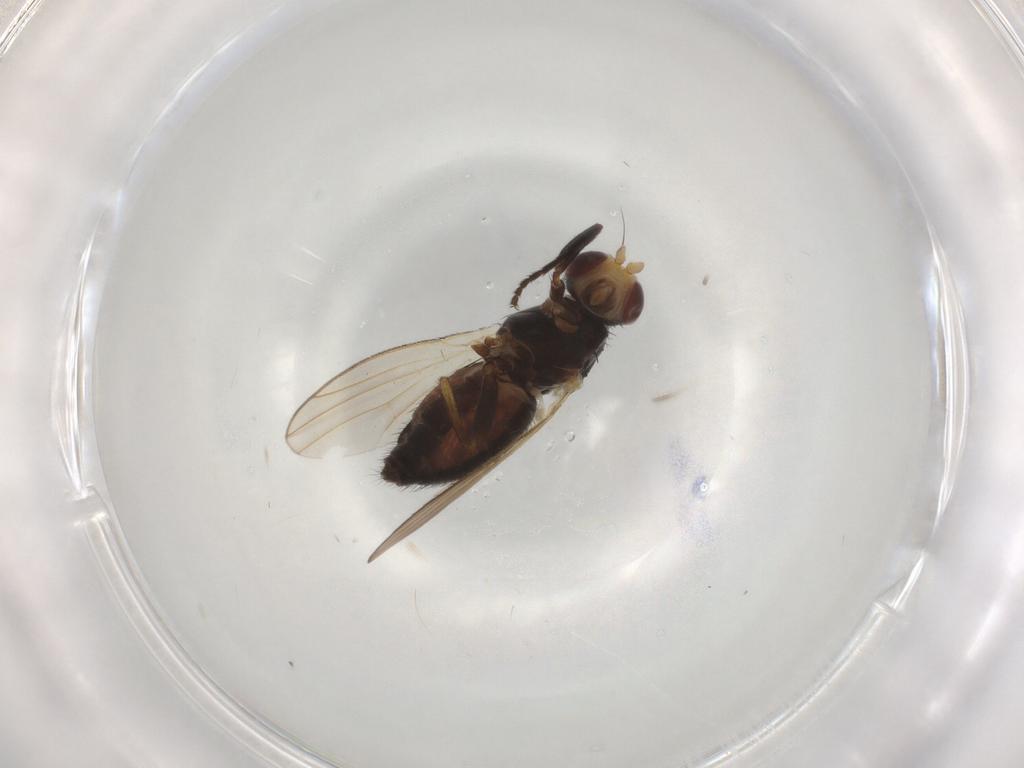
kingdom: Animalia
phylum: Arthropoda
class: Insecta
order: Diptera
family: Heleomyzidae
